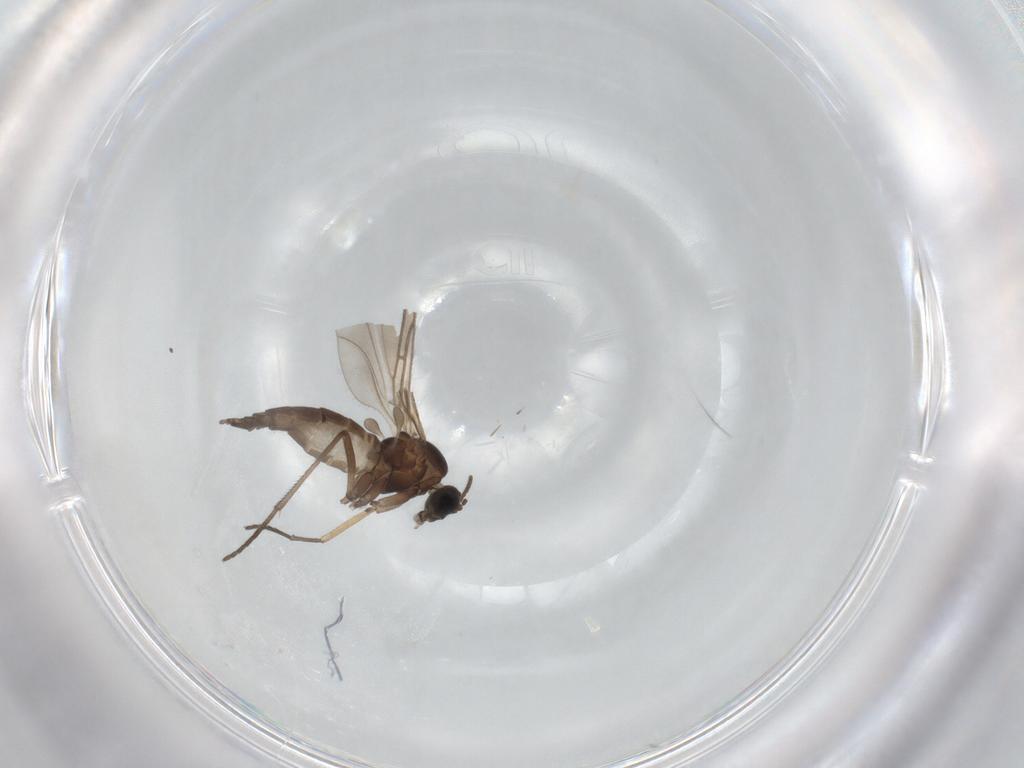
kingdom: Animalia
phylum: Arthropoda
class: Insecta
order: Diptera
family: Sciaridae
